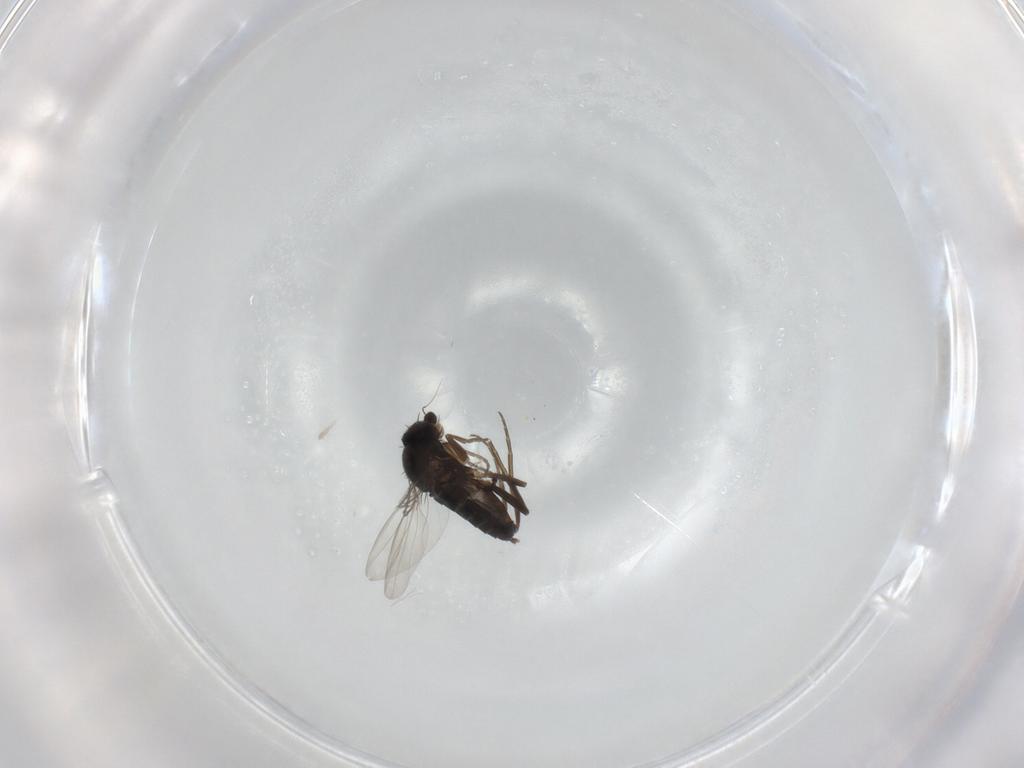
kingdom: Animalia
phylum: Arthropoda
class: Insecta
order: Diptera
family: Phoridae
